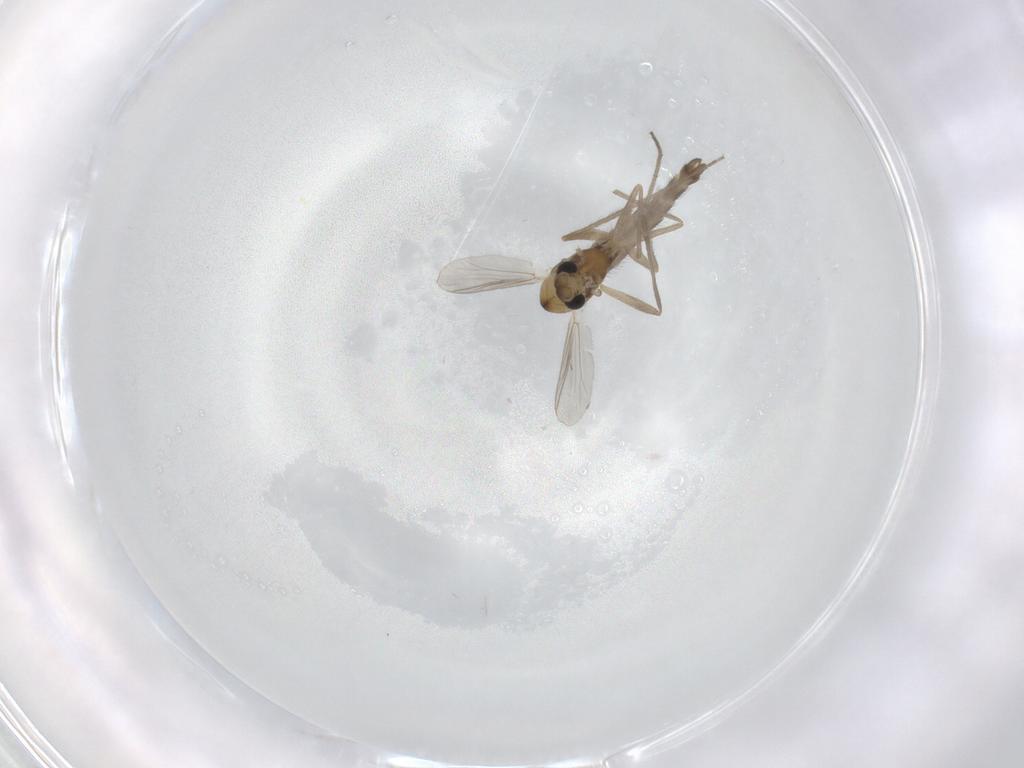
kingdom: Animalia
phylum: Arthropoda
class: Insecta
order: Diptera
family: Chironomidae
